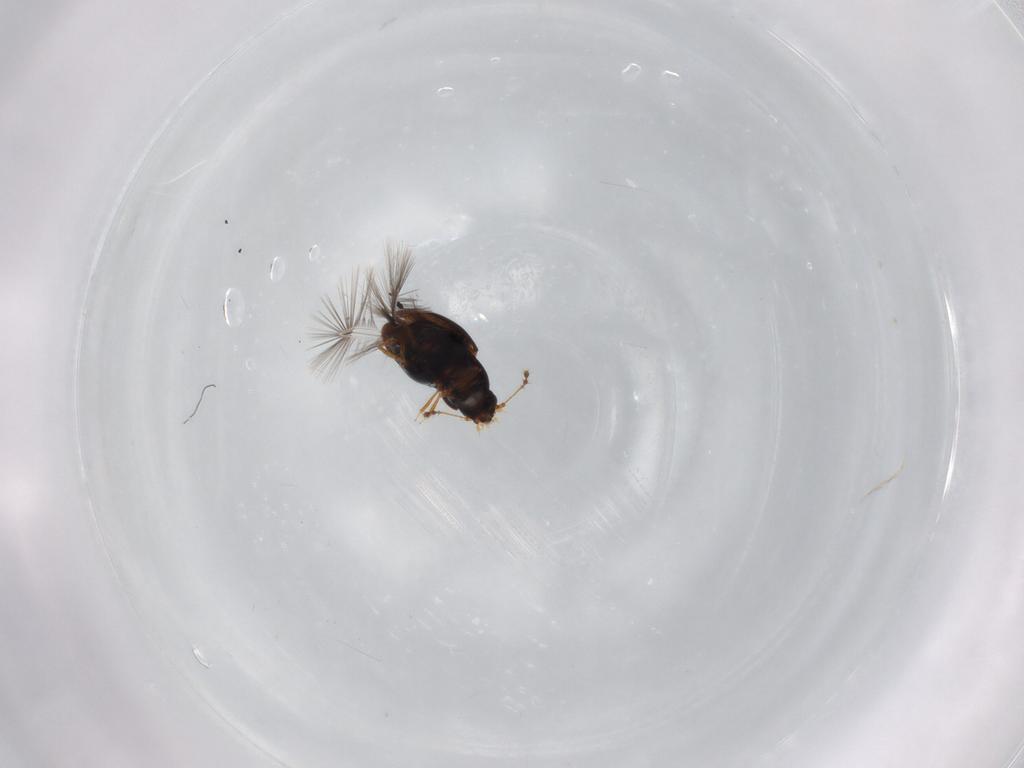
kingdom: Animalia
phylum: Arthropoda
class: Insecta
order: Coleoptera
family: Ptiliidae
